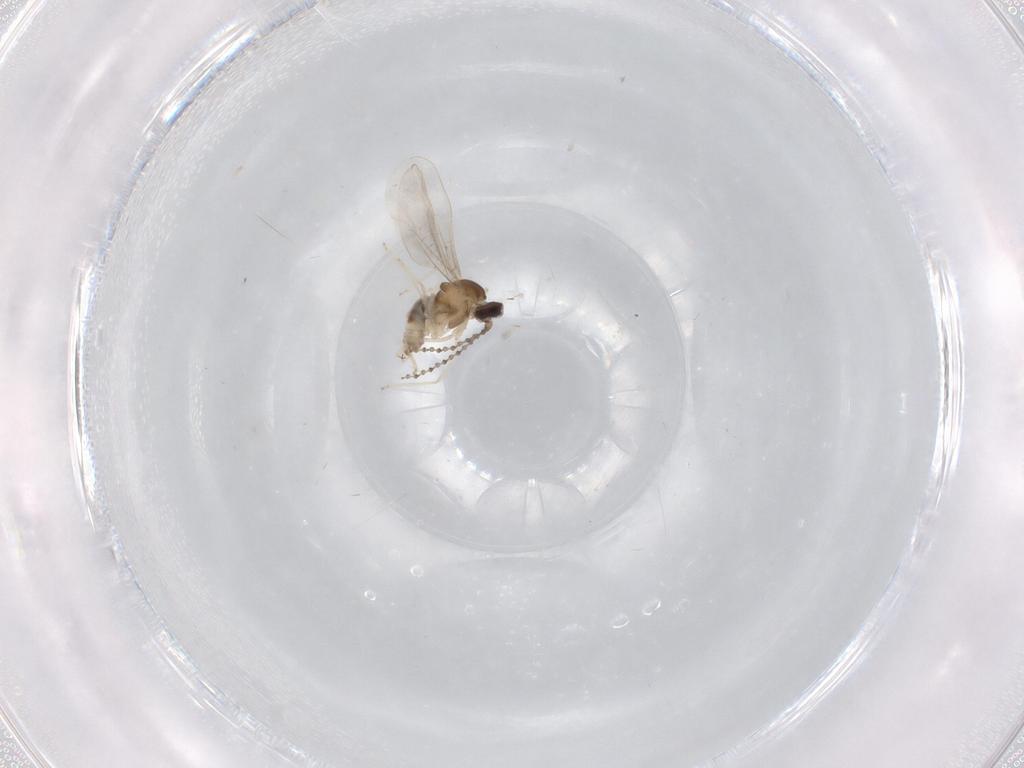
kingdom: Animalia
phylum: Arthropoda
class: Insecta
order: Diptera
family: Cecidomyiidae
